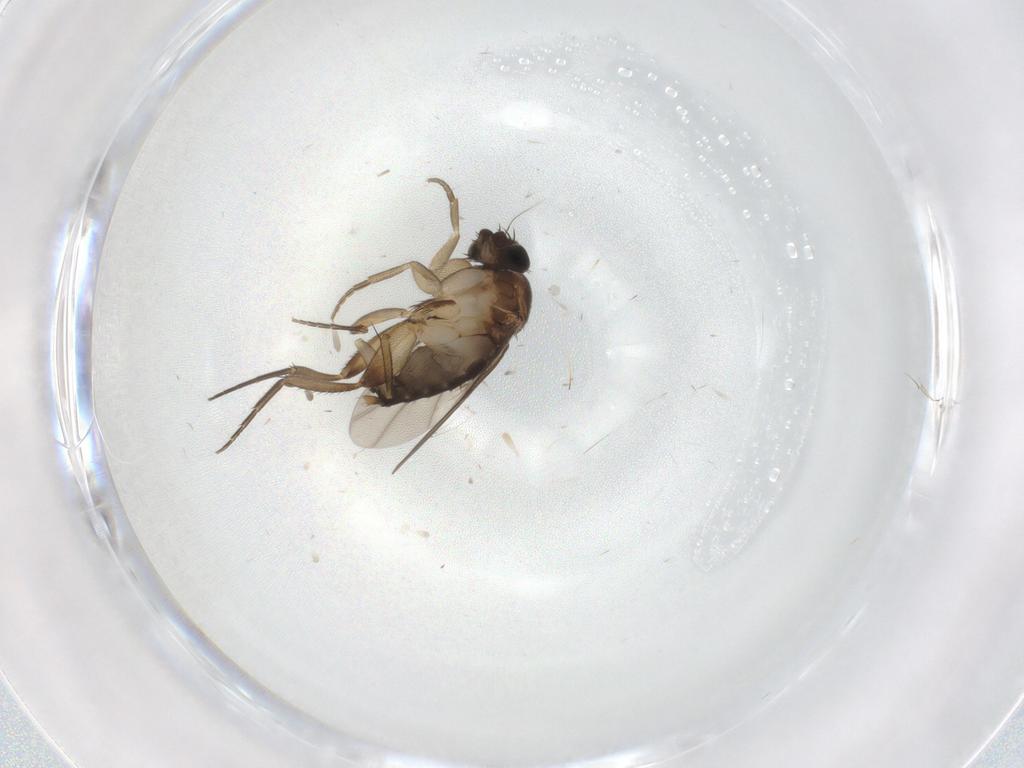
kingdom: Animalia
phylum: Arthropoda
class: Insecta
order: Diptera
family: Phoridae
